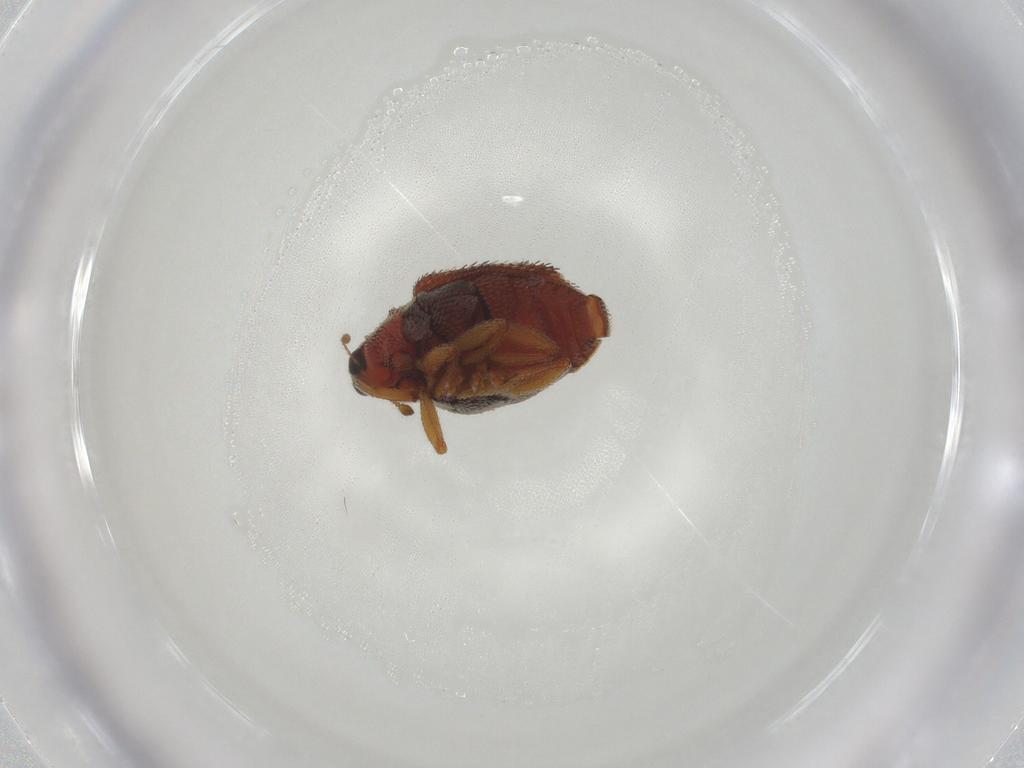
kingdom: Animalia
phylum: Arthropoda
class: Insecta
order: Coleoptera
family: Curculionidae
